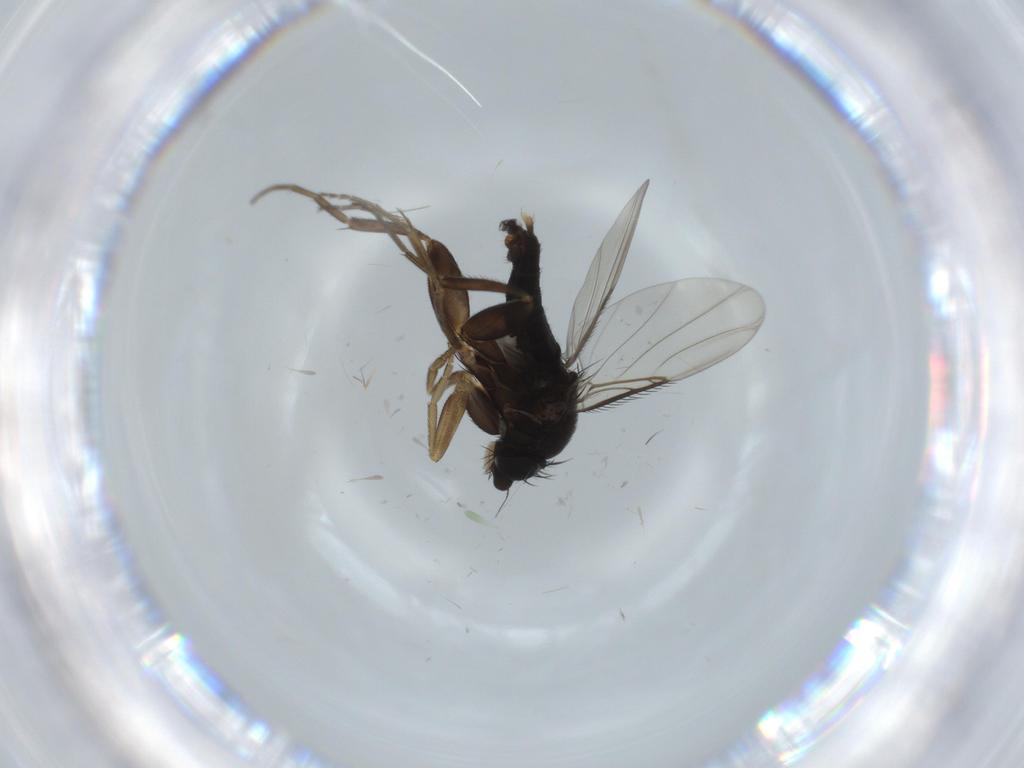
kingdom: Animalia
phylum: Arthropoda
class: Insecta
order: Diptera
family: Phoridae
